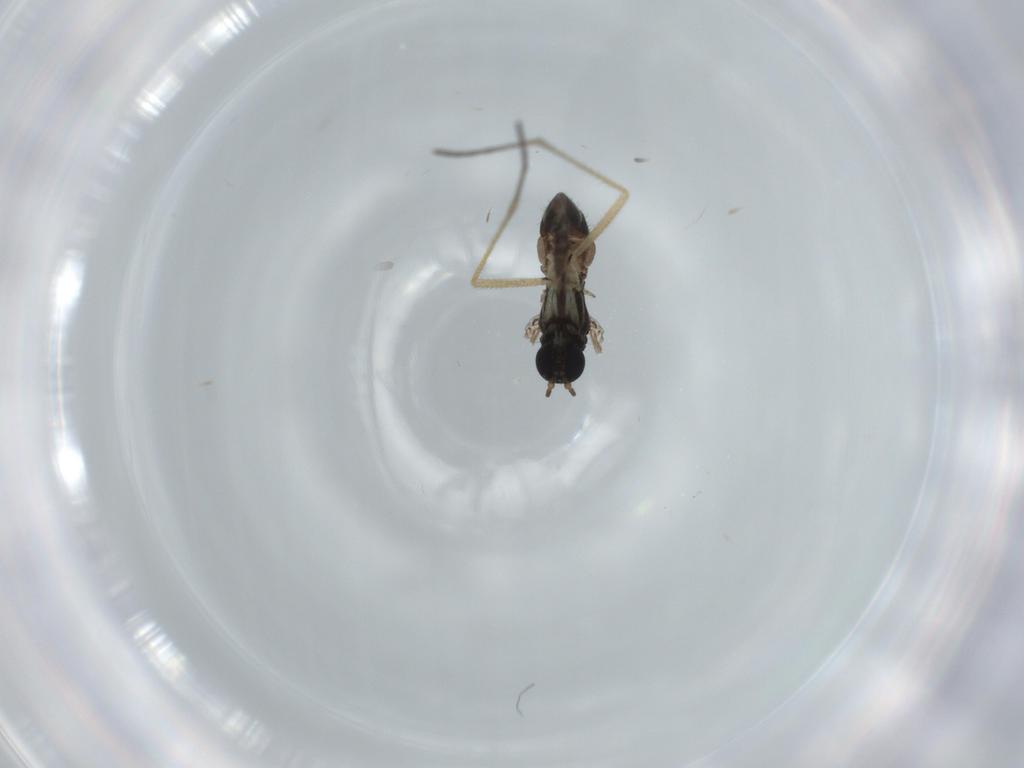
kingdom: Animalia
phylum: Arthropoda
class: Insecta
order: Diptera
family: Sciaridae
